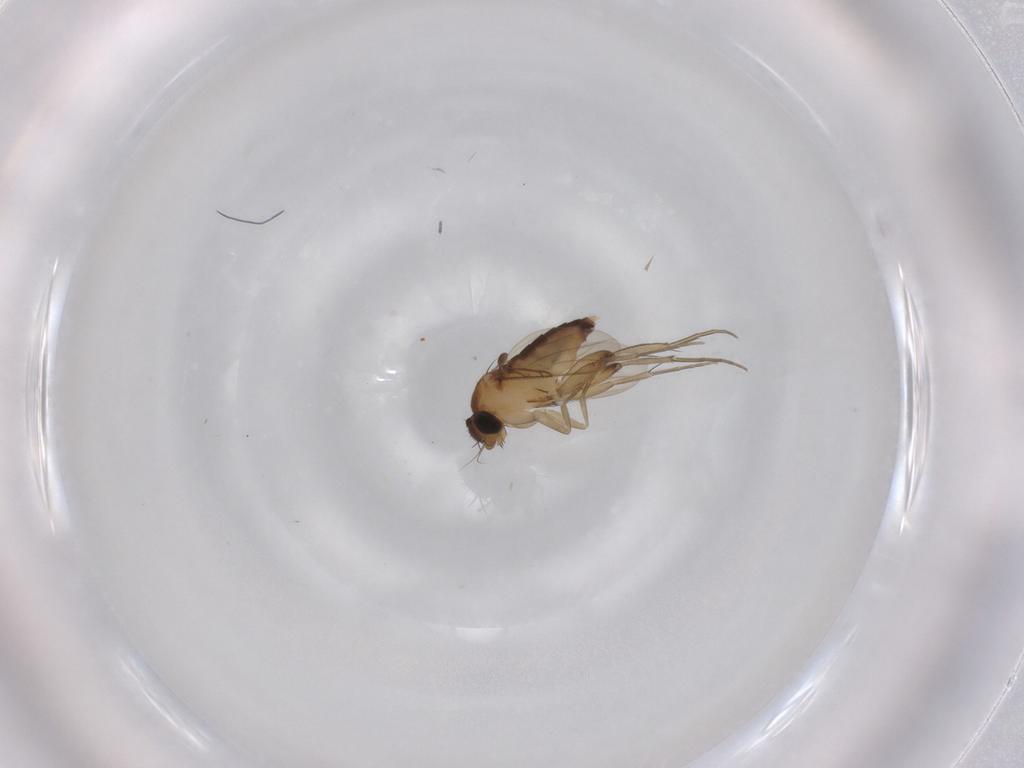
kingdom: Animalia
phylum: Arthropoda
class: Insecta
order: Diptera
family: Phoridae
